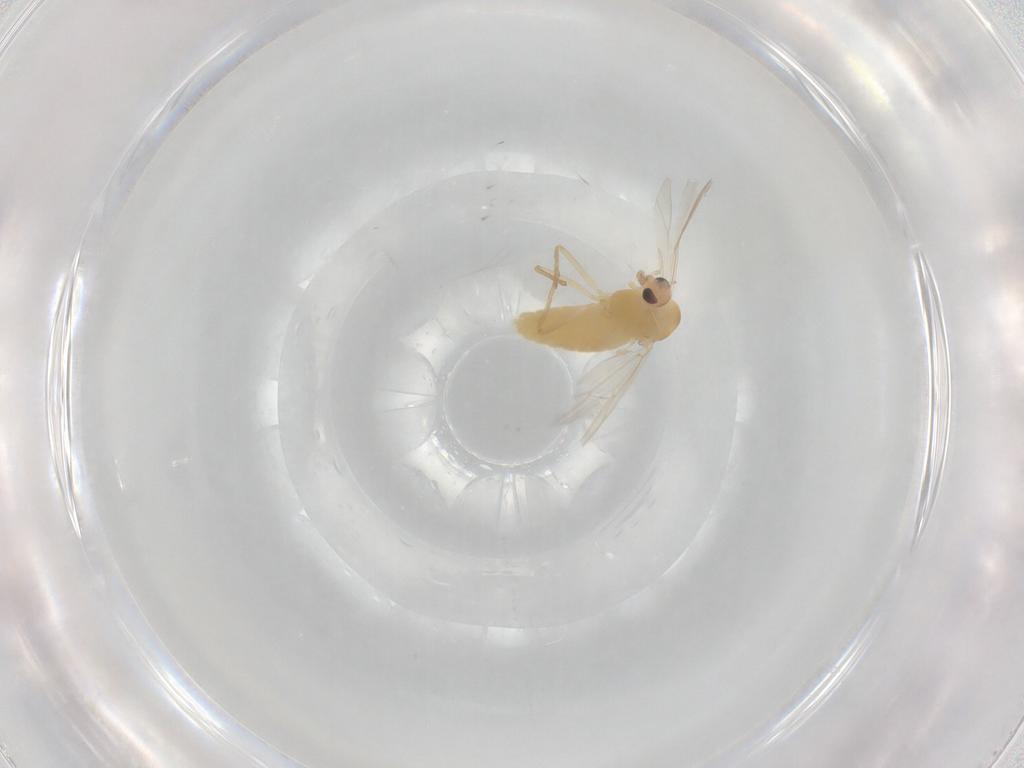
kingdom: Animalia
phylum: Arthropoda
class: Insecta
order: Diptera
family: Chironomidae
